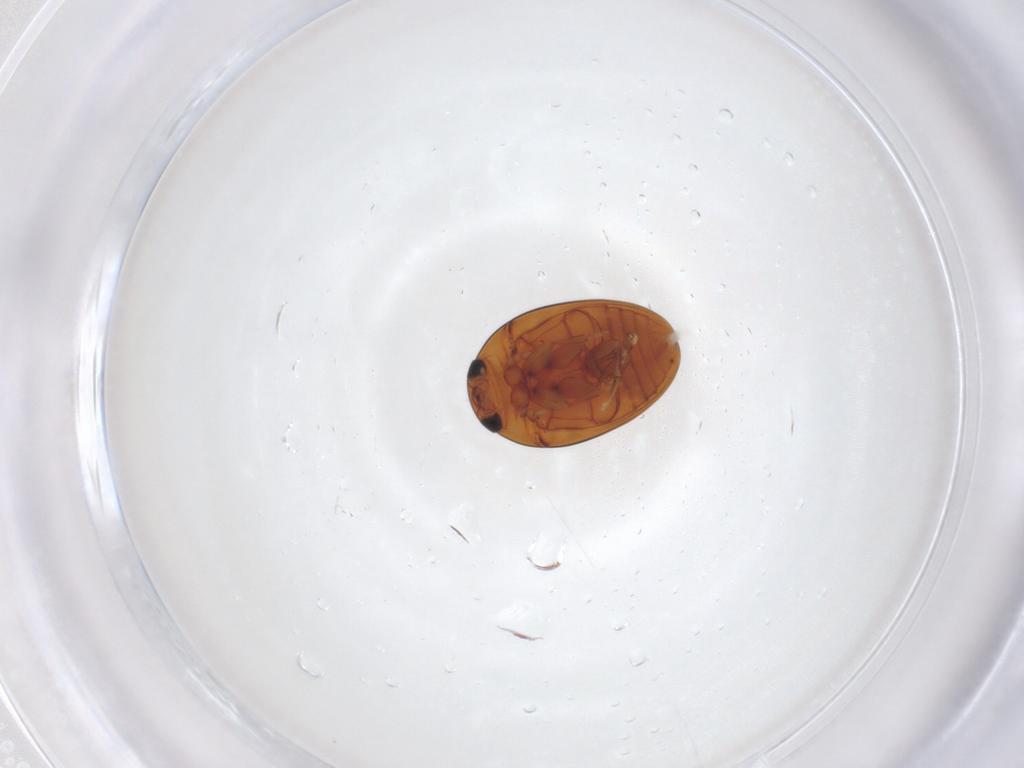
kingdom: Animalia
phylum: Arthropoda
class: Insecta
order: Coleoptera
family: Phalacridae
